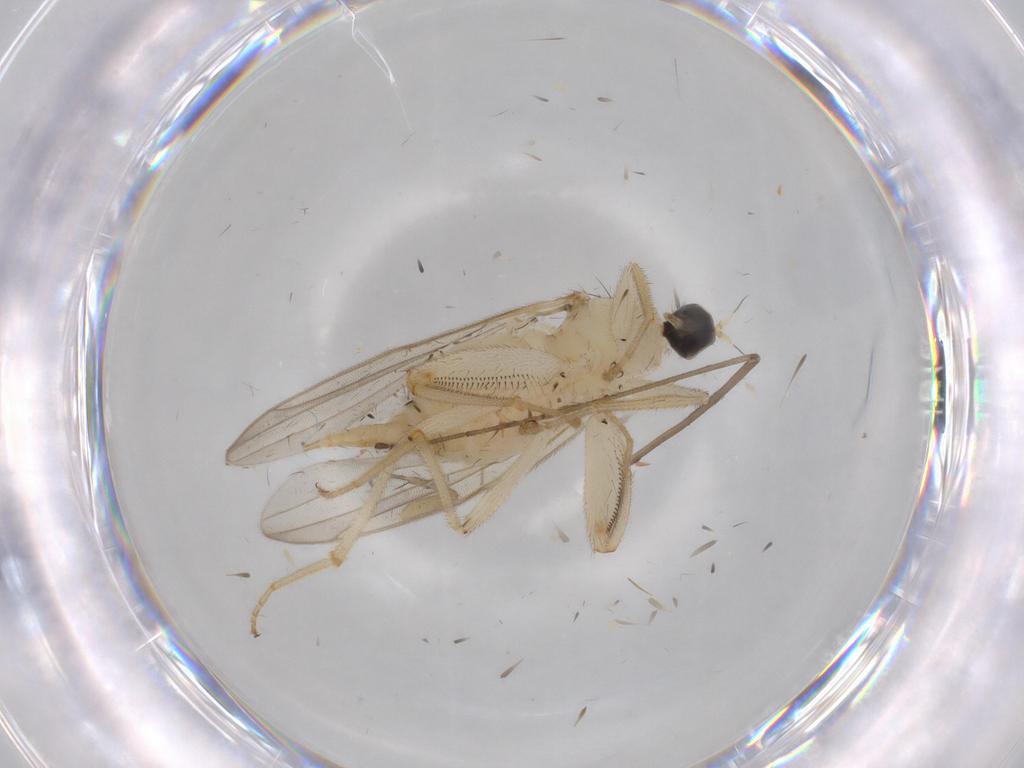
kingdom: Animalia
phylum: Arthropoda
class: Insecta
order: Diptera
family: Hybotidae
